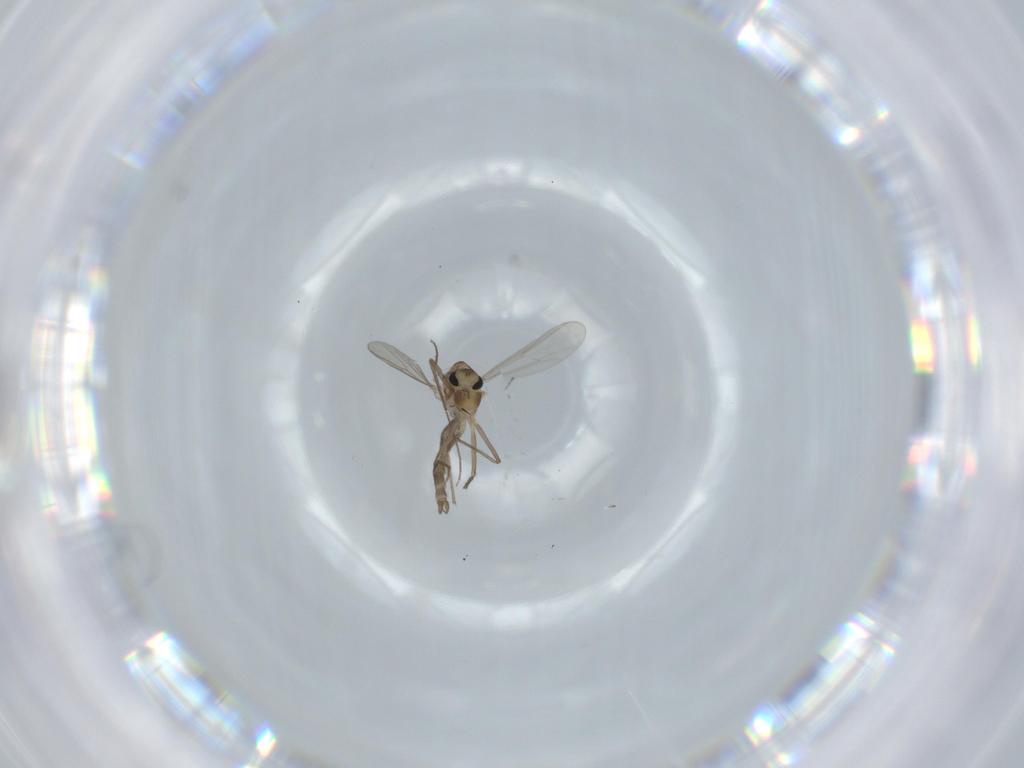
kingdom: Animalia
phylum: Arthropoda
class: Insecta
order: Diptera
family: Chironomidae
